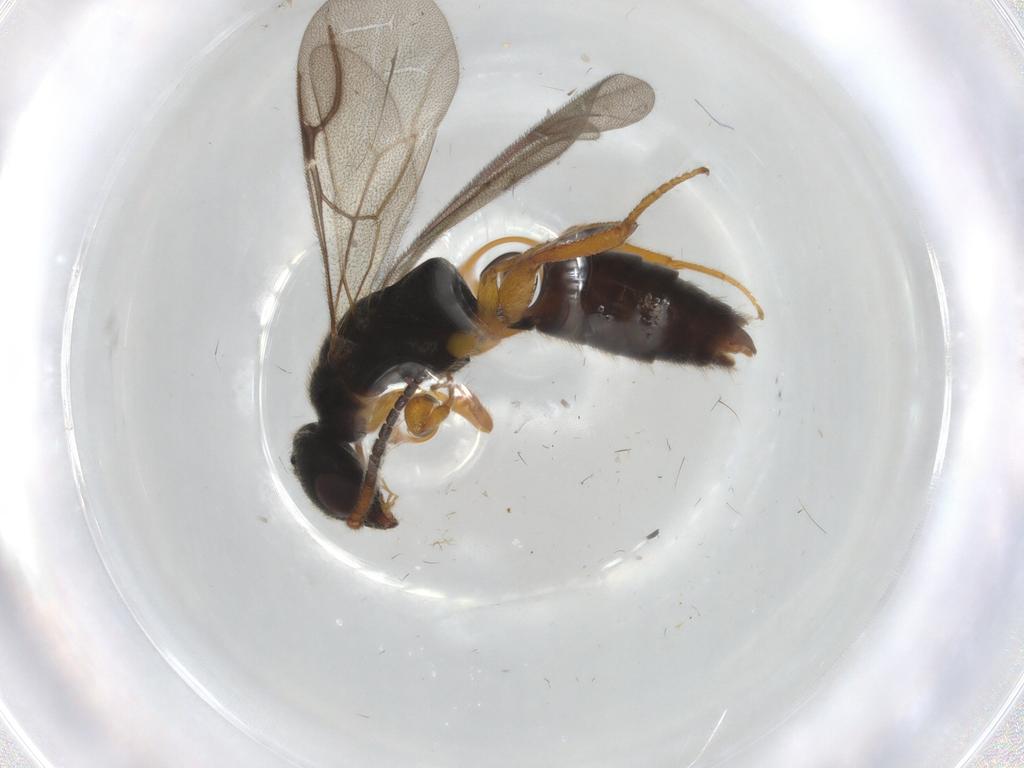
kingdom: Animalia
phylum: Arthropoda
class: Insecta
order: Hymenoptera
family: Bethylidae
